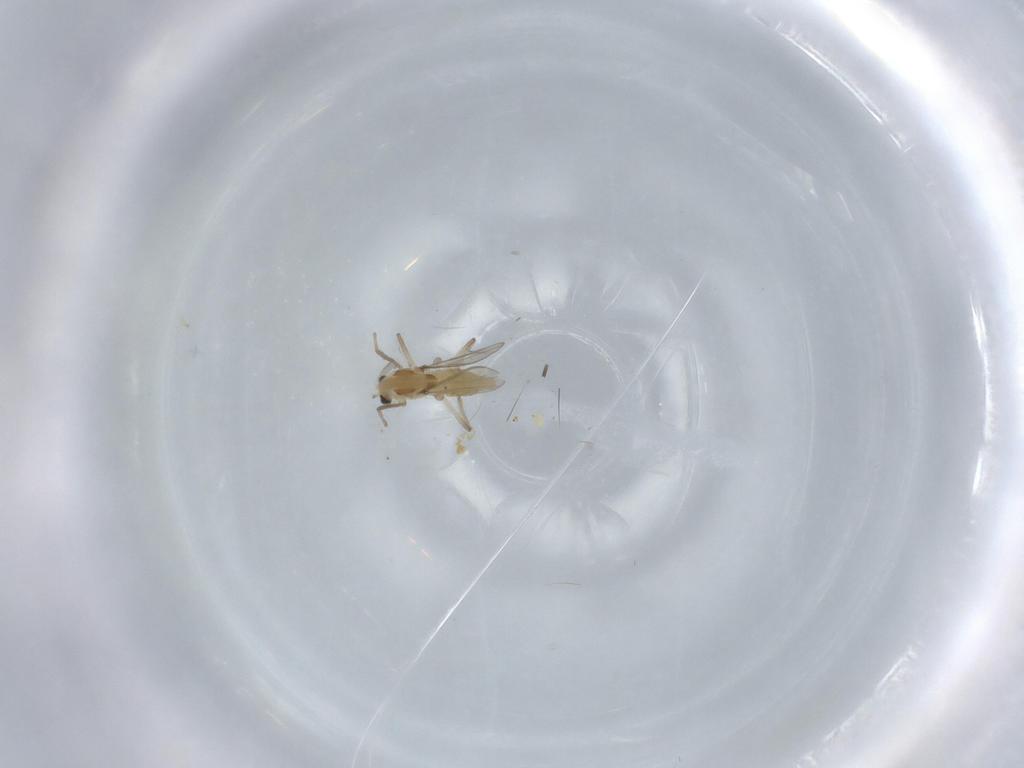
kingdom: Animalia
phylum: Arthropoda
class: Insecta
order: Diptera
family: Chironomidae
